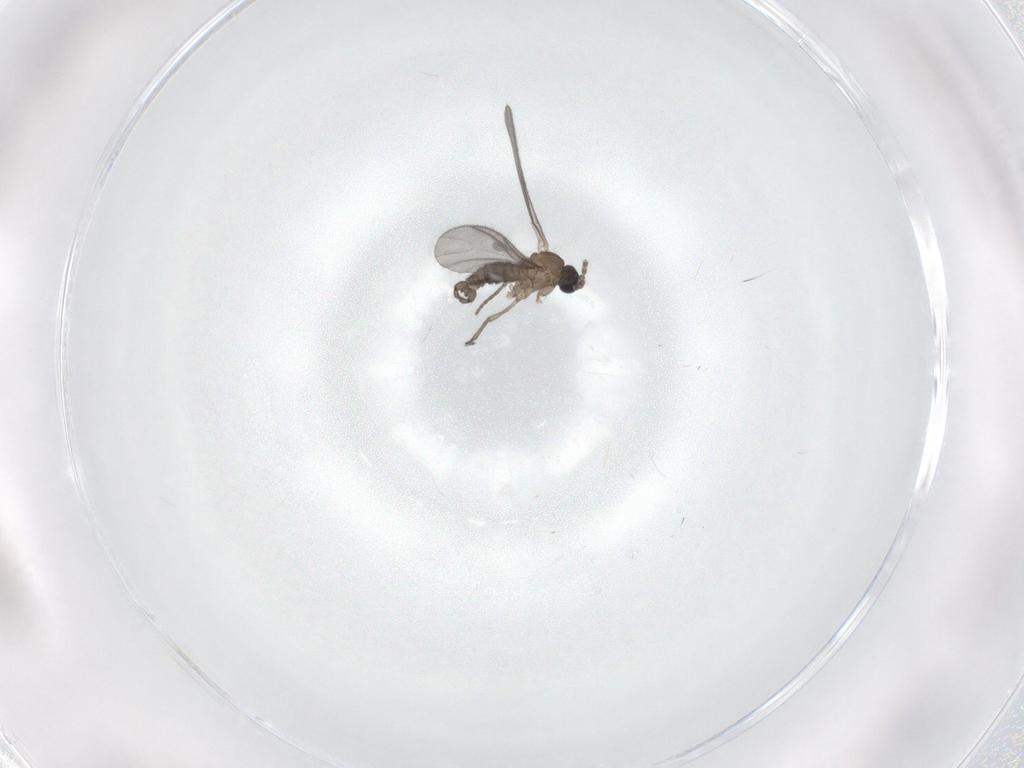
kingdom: Animalia
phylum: Arthropoda
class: Insecta
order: Diptera
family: Sciaridae
